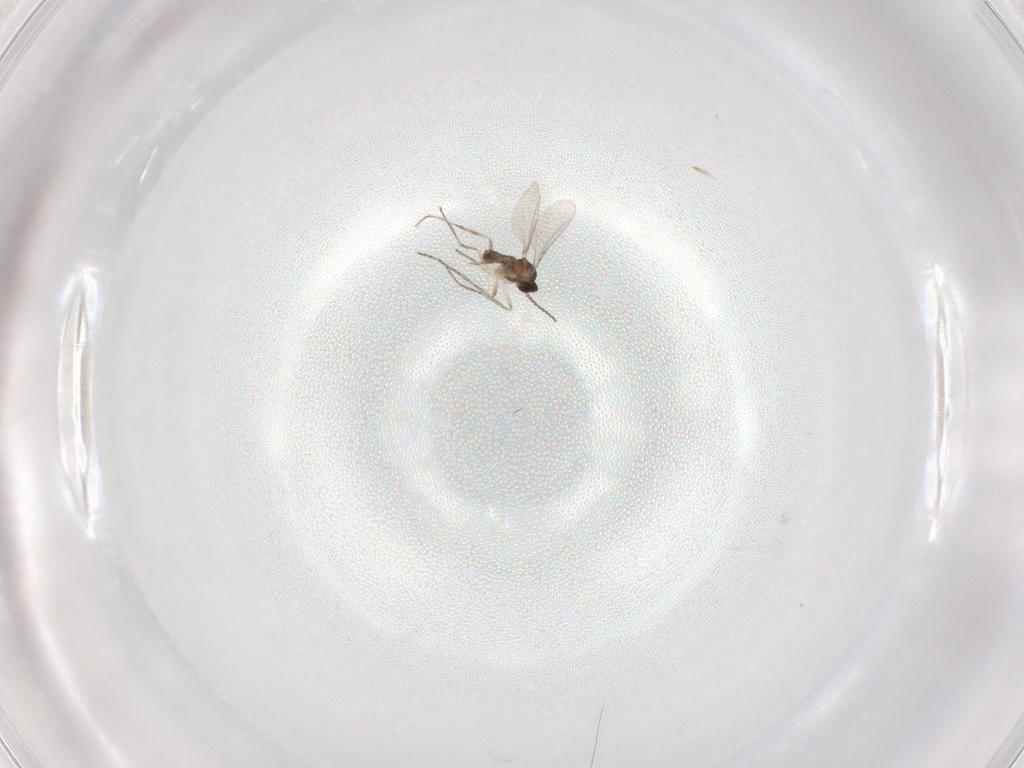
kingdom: Animalia
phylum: Arthropoda
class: Insecta
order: Diptera
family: Cecidomyiidae
